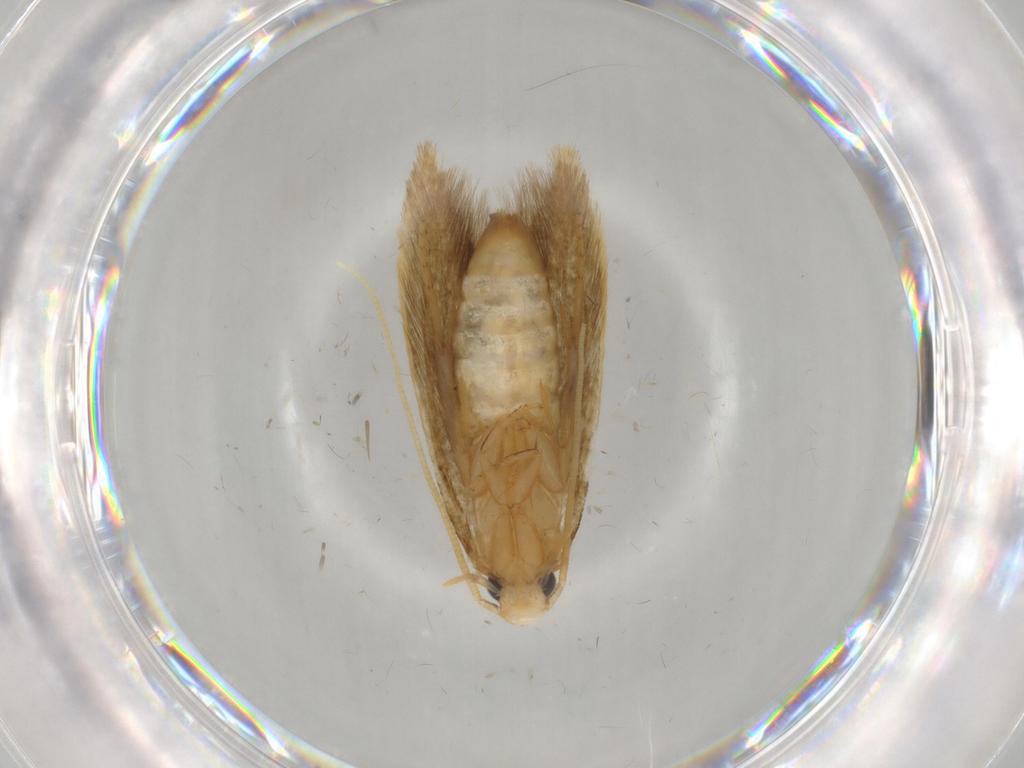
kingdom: Animalia
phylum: Arthropoda
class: Insecta
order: Lepidoptera
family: Tineidae
